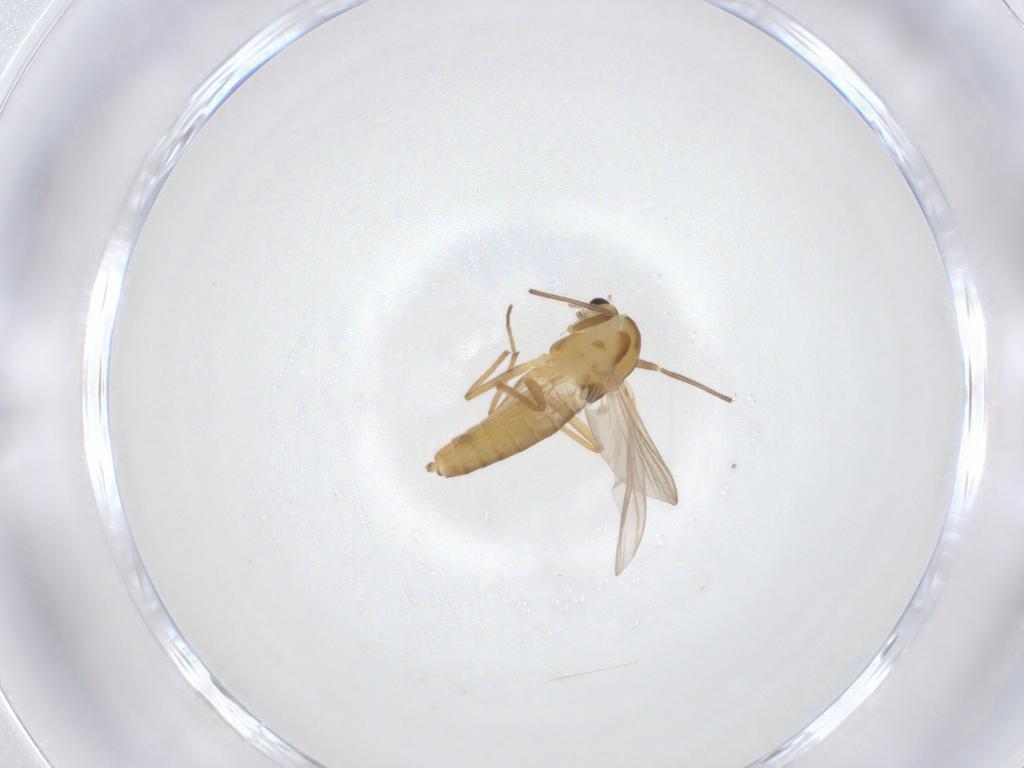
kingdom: Animalia
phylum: Arthropoda
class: Insecta
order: Diptera
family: Chironomidae
